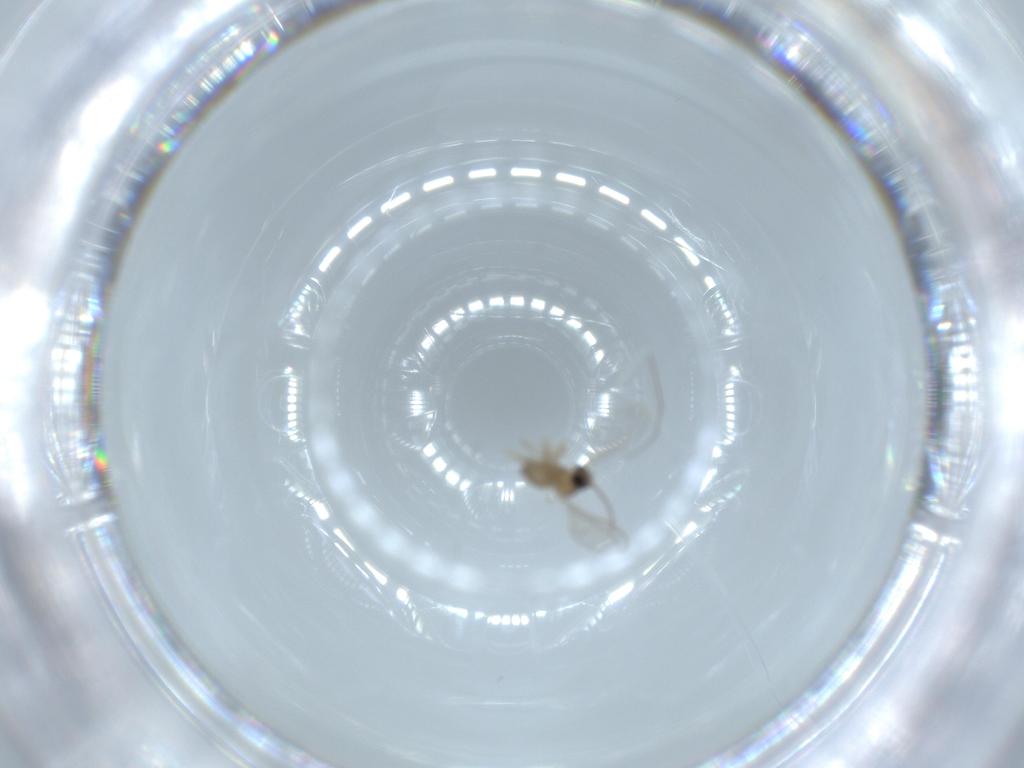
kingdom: Animalia
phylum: Arthropoda
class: Insecta
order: Diptera
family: Cecidomyiidae
